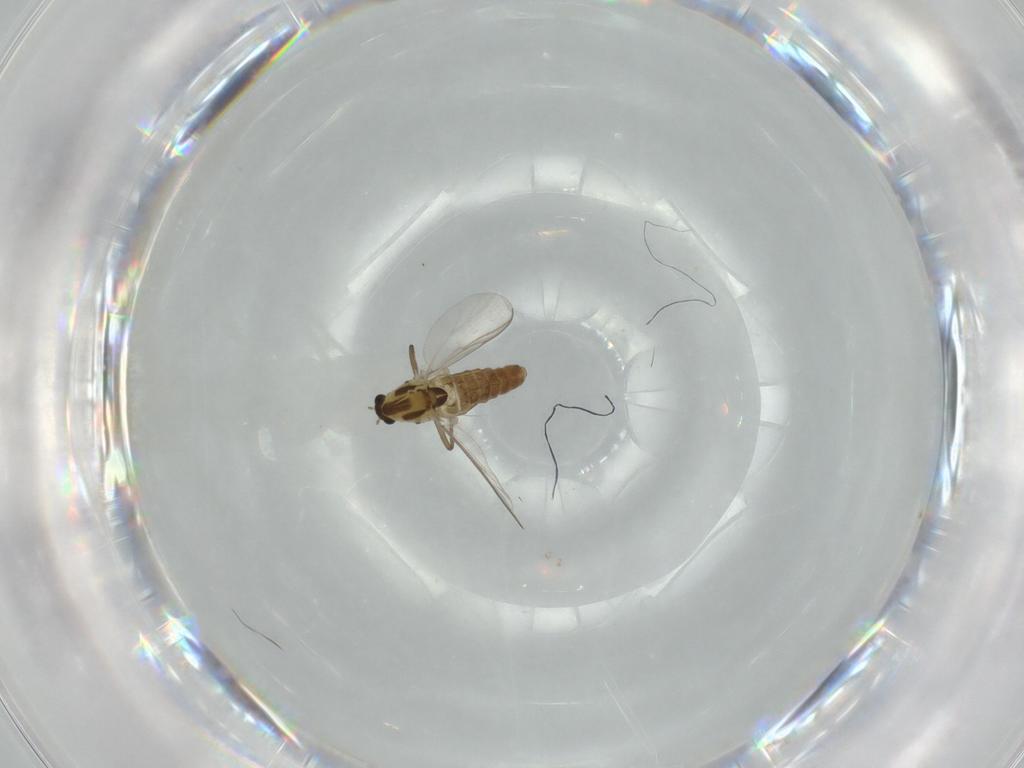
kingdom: Animalia
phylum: Arthropoda
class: Insecta
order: Diptera
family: Chironomidae
